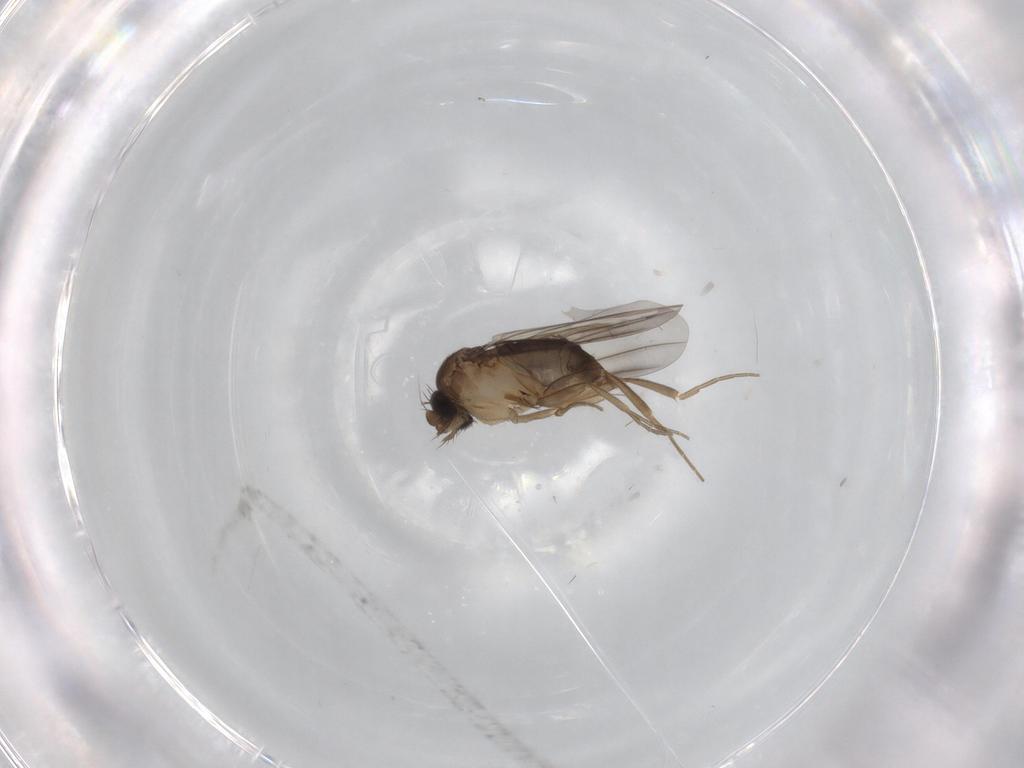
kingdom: Animalia
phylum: Arthropoda
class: Insecta
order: Diptera
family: Phoridae
